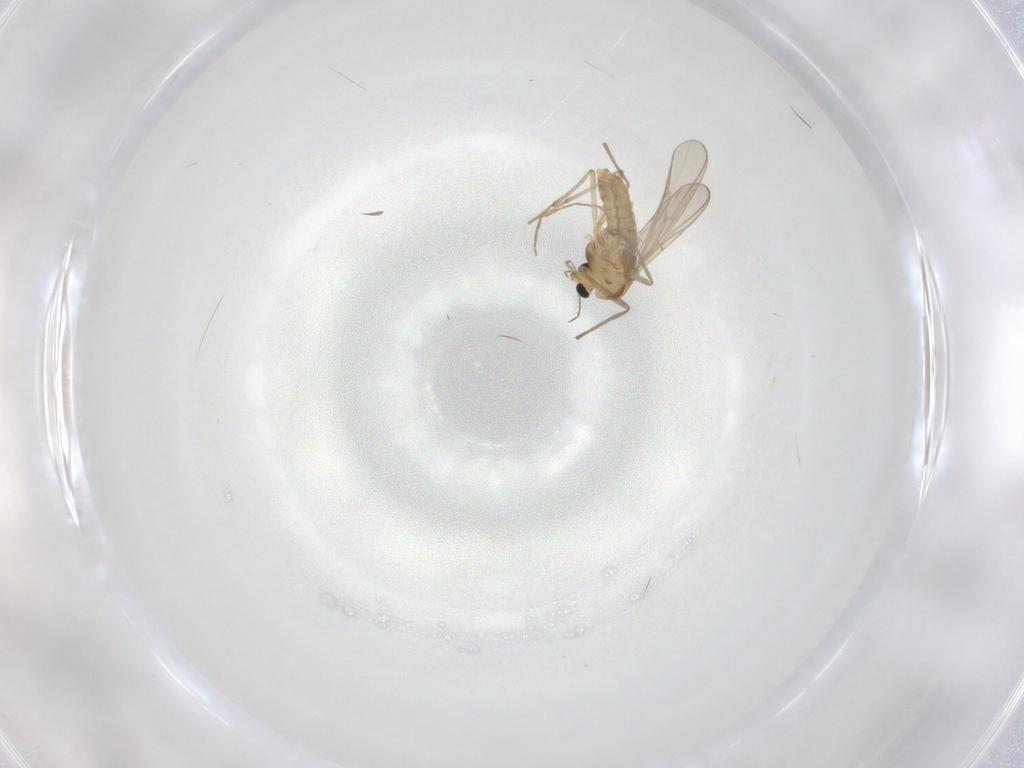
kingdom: Animalia
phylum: Arthropoda
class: Insecta
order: Diptera
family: Chironomidae
